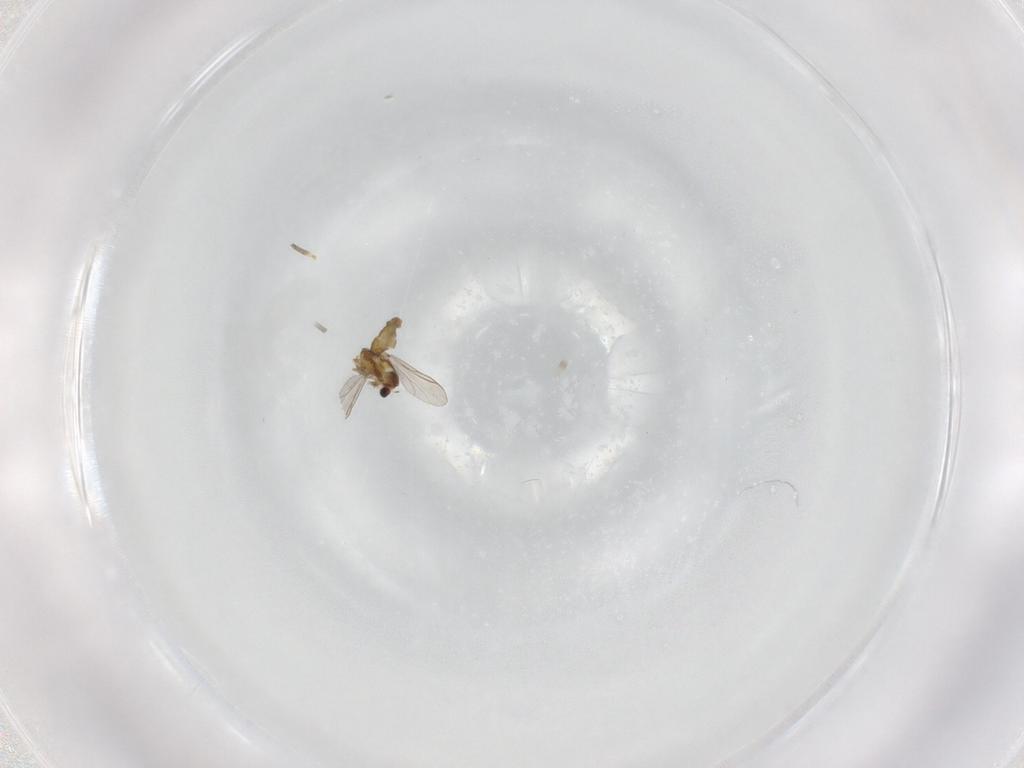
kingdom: Animalia
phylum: Arthropoda
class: Insecta
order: Diptera
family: Chironomidae
